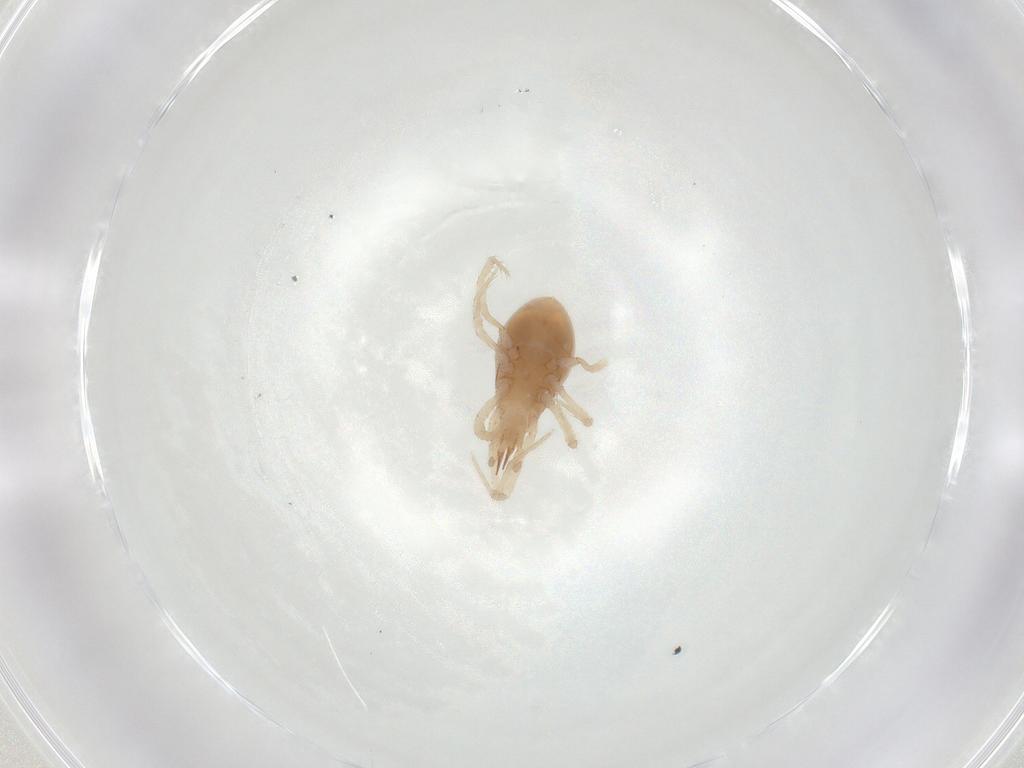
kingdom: Animalia
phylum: Arthropoda
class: Arachnida
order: Mesostigmata
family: Parasitidae
